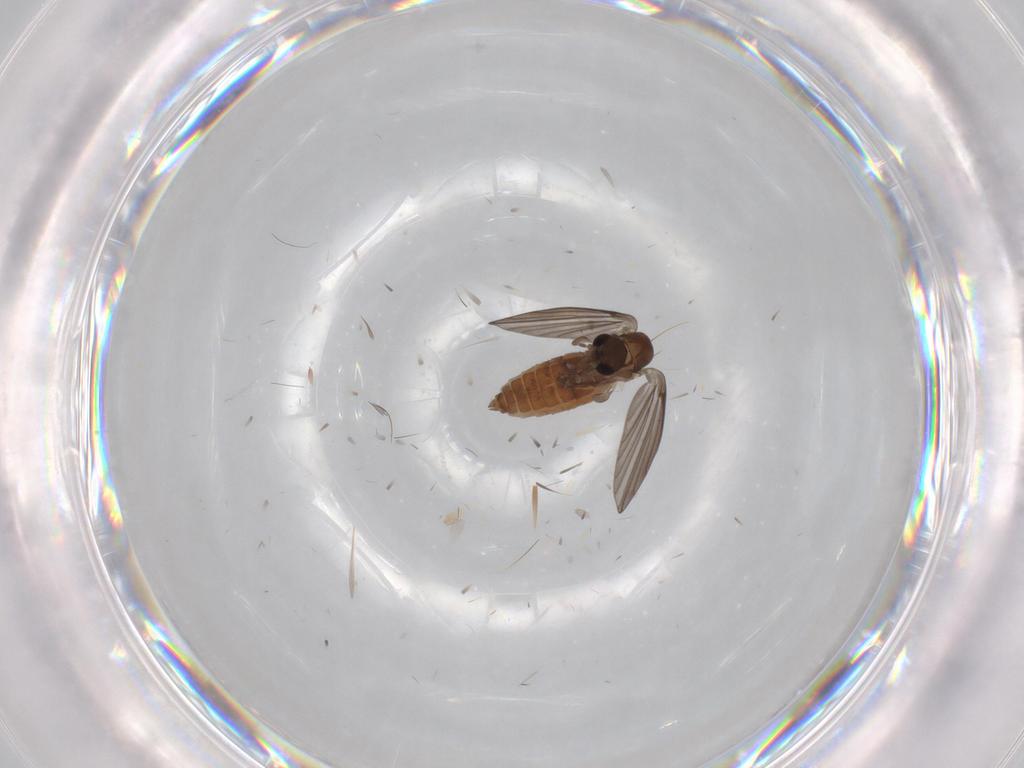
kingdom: Animalia
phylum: Arthropoda
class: Insecta
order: Diptera
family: Psychodidae
